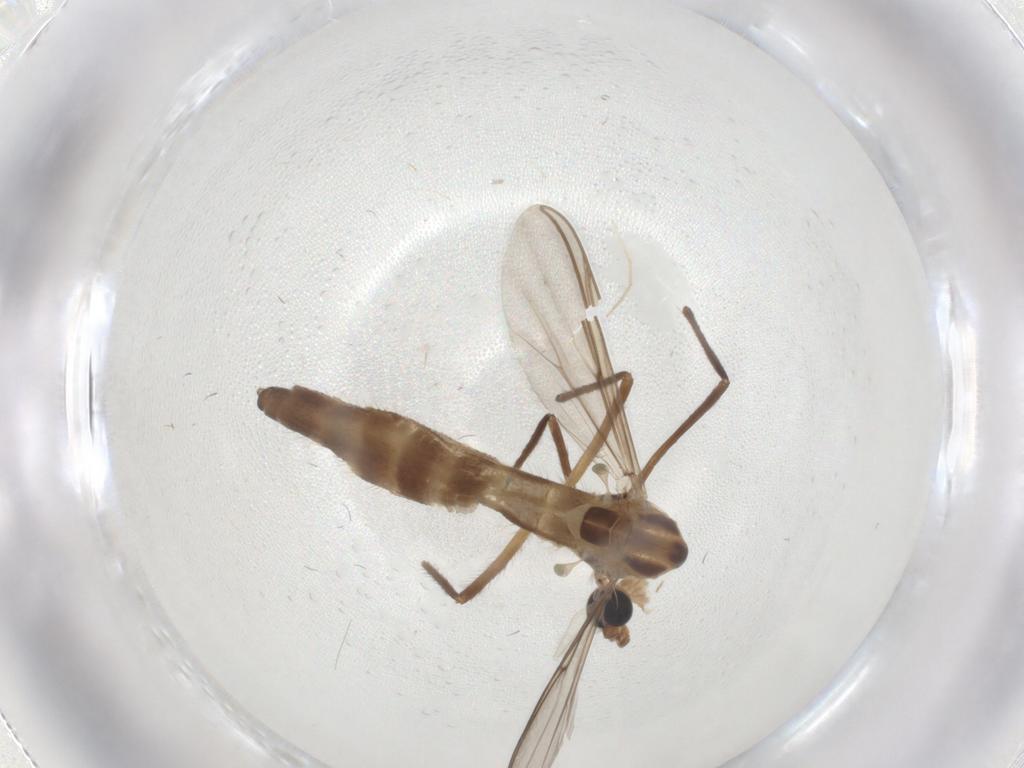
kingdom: Animalia
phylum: Arthropoda
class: Insecta
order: Diptera
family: Chironomidae
